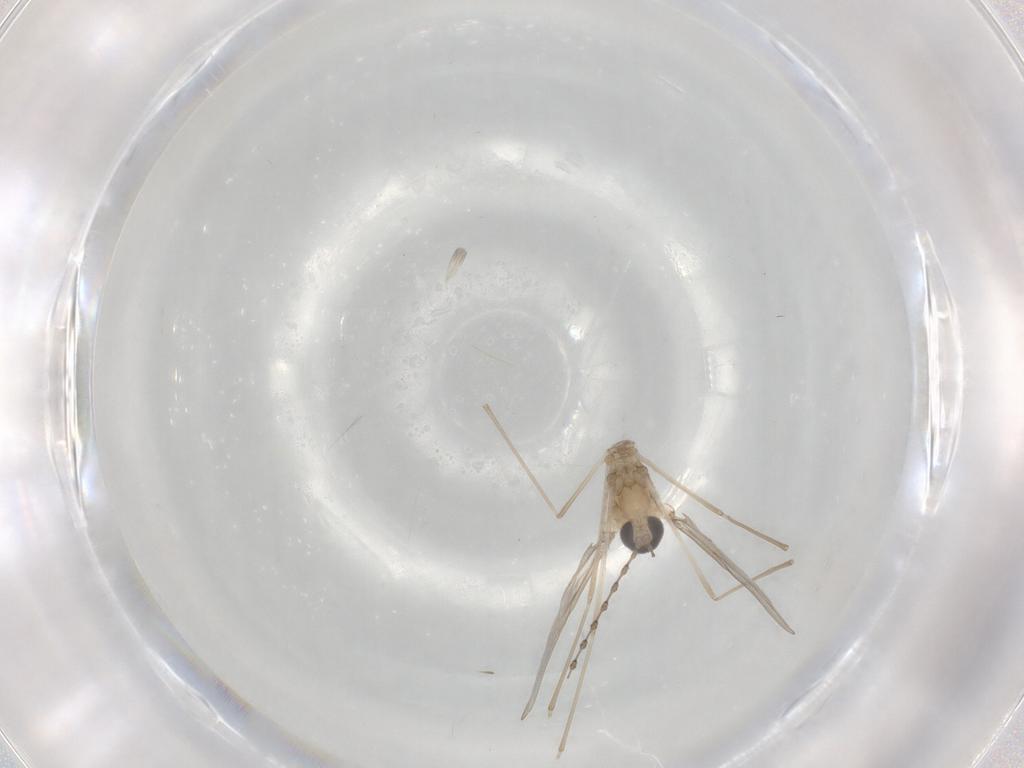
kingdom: Animalia
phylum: Arthropoda
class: Insecta
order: Diptera
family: Cecidomyiidae
